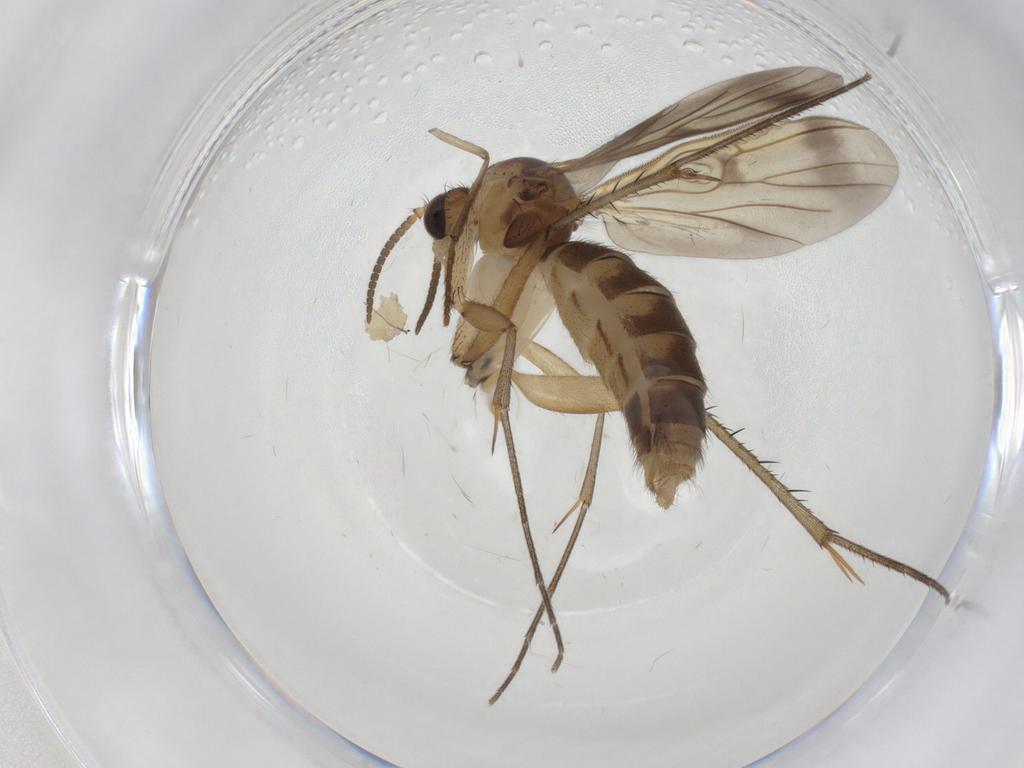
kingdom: Animalia
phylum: Arthropoda
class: Insecta
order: Diptera
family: Mycetophilidae
